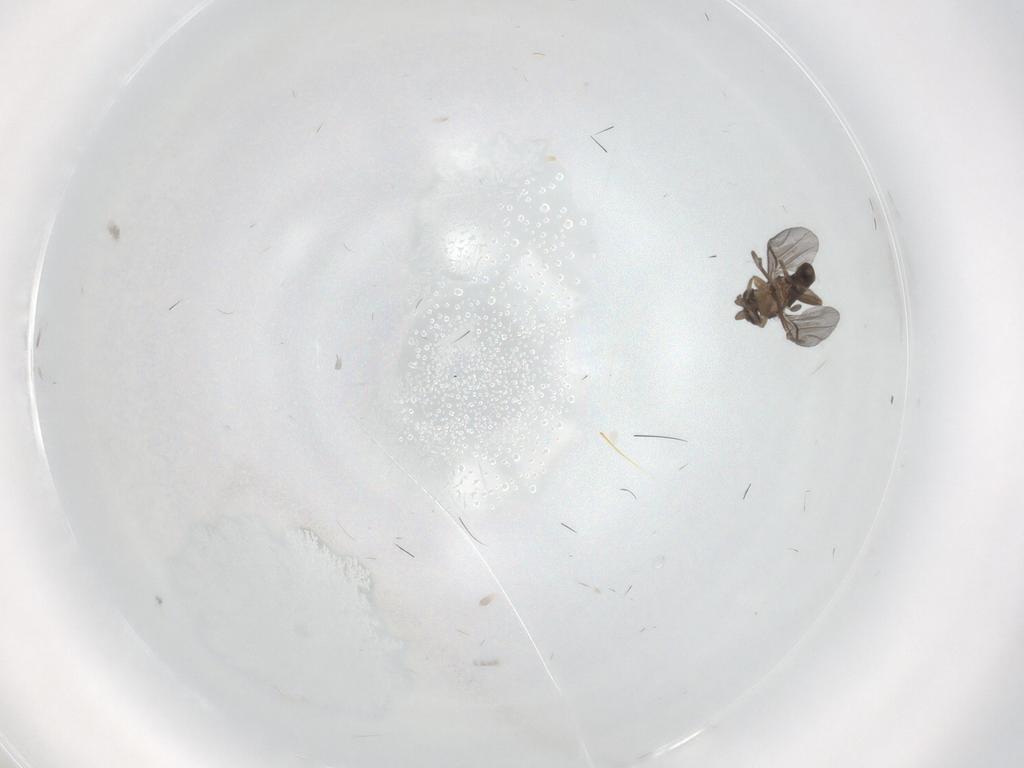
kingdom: Animalia
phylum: Arthropoda
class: Insecta
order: Diptera
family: Phoridae
